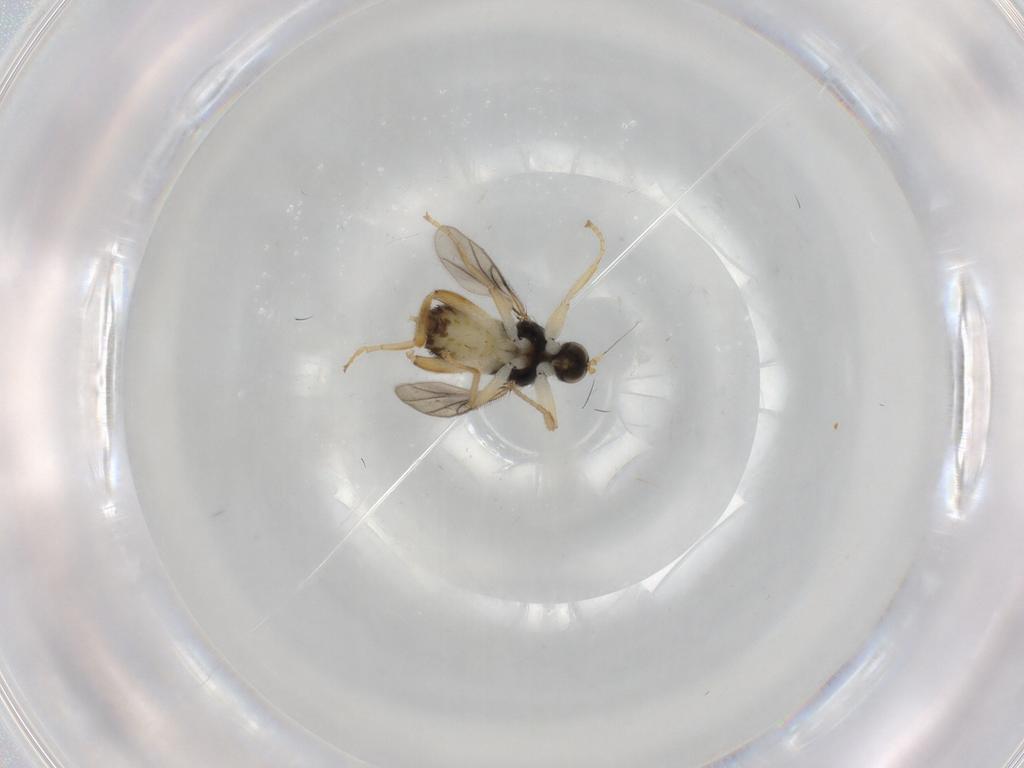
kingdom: Animalia
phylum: Arthropoda
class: Insecta
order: Diptera
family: Hybotidae
